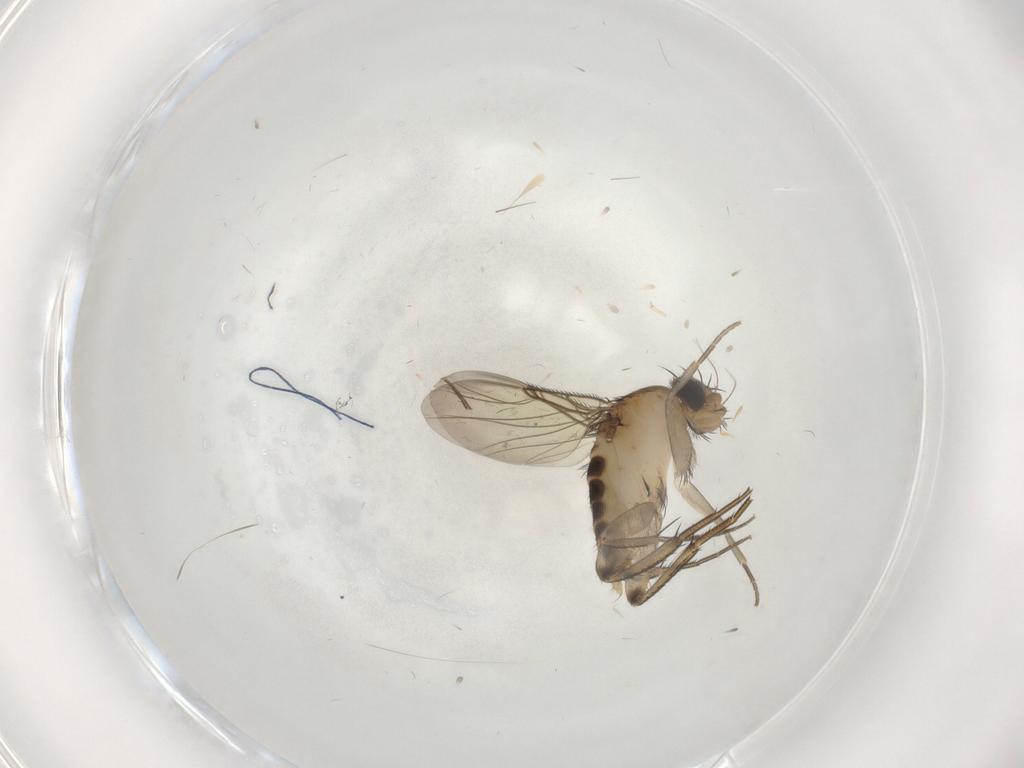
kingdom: Animalia
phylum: Arthropoda
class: Insecta
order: Diptera
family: Phoridae
